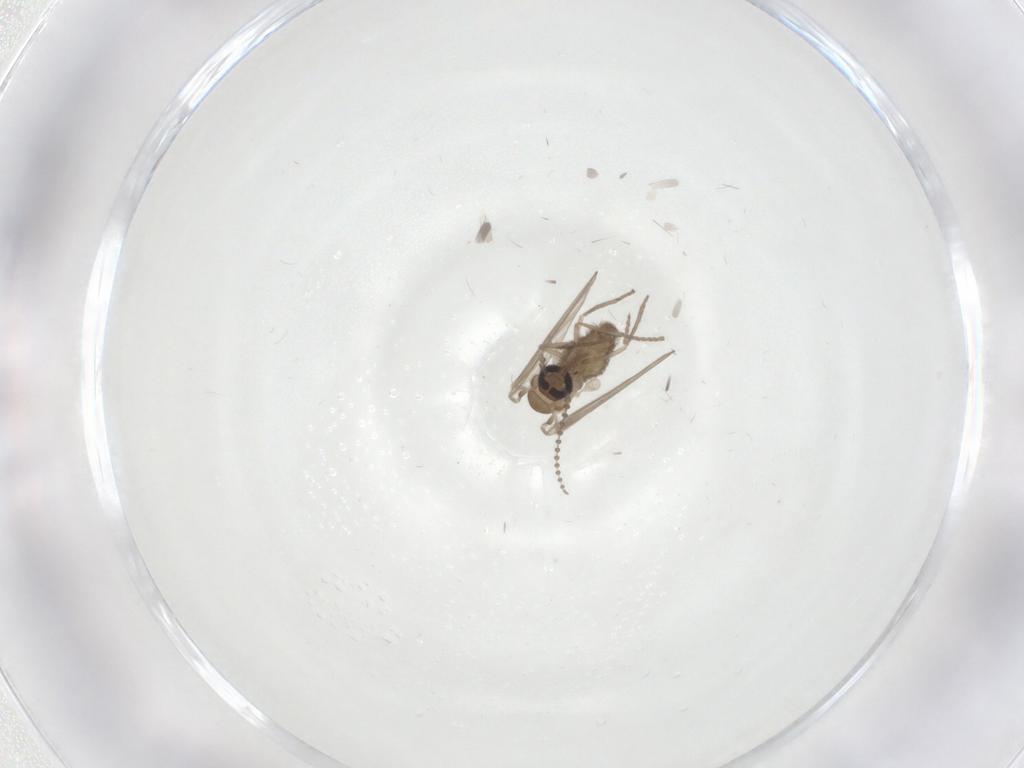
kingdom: Animalia
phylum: Arthropoda
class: Insecta
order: Diptera
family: Psychodidae
